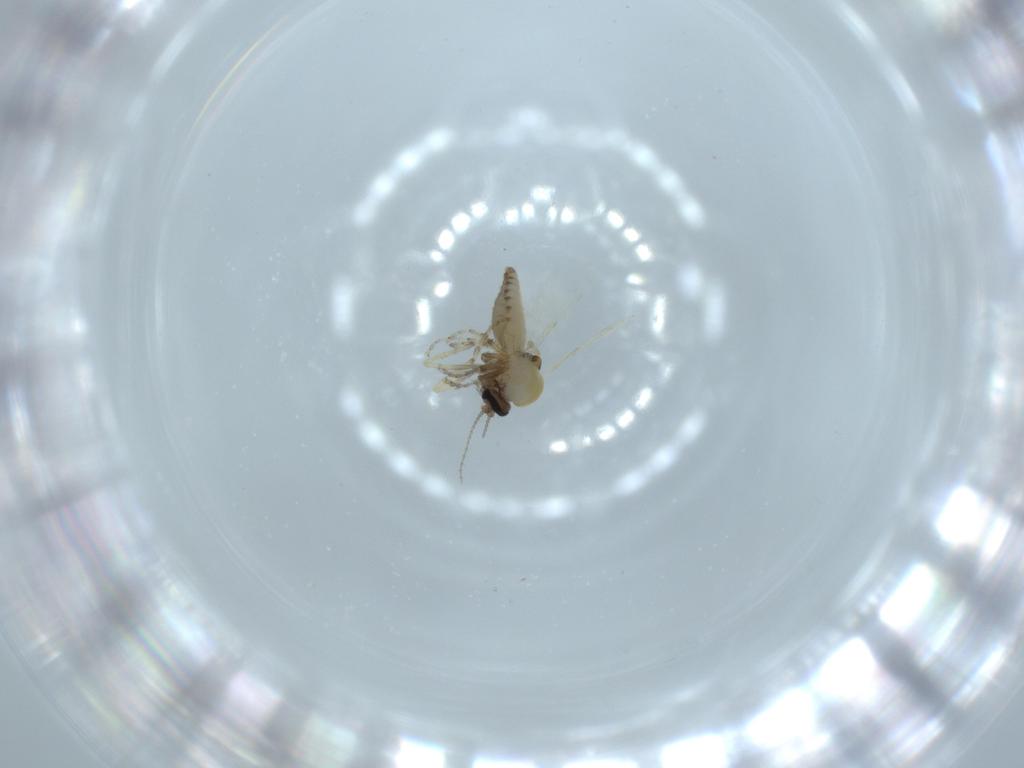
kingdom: Animalia
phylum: Arthropoda
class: Insecta
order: Diptera
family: Ceratopogonidae
